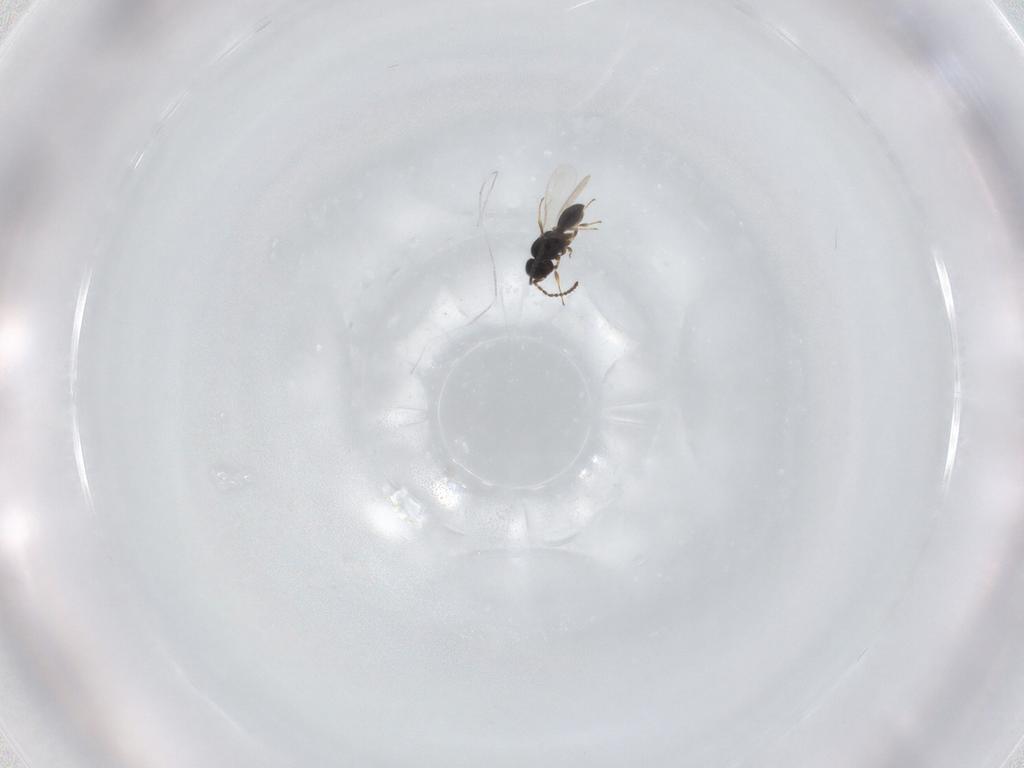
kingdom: Animalia
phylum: Arthropoda
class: Insecta
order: Hymenoptera
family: Scelionidae
